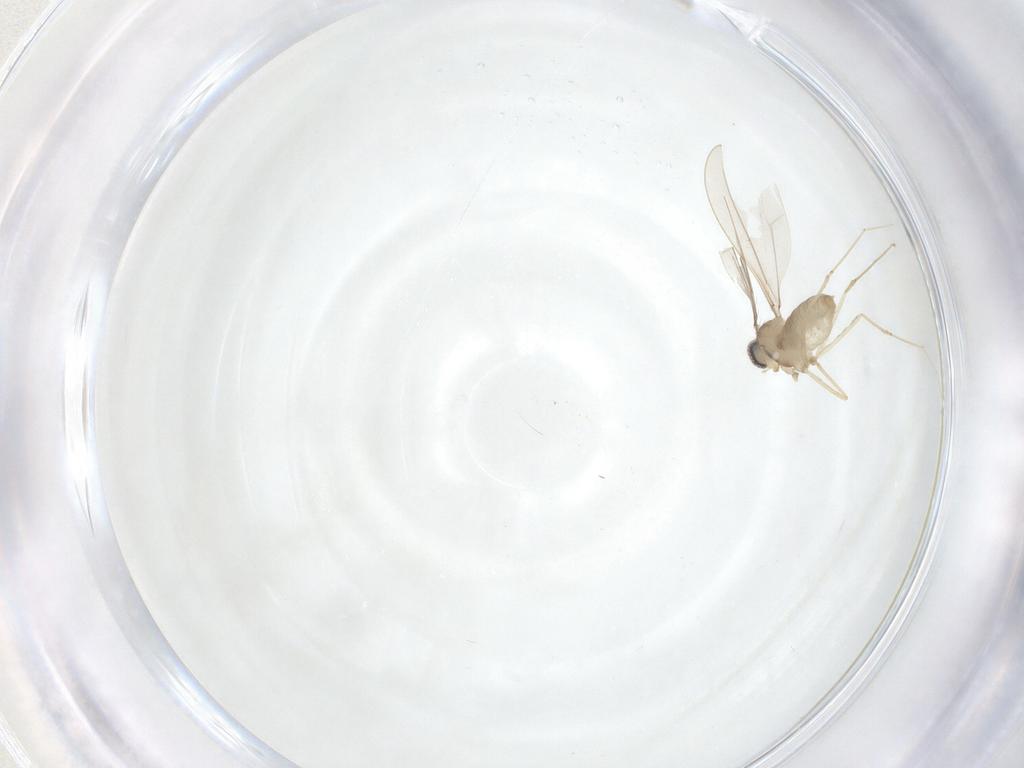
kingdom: Animalia
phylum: Arthropoda
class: Insecta
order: Diptera
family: Cecidomyiidae
